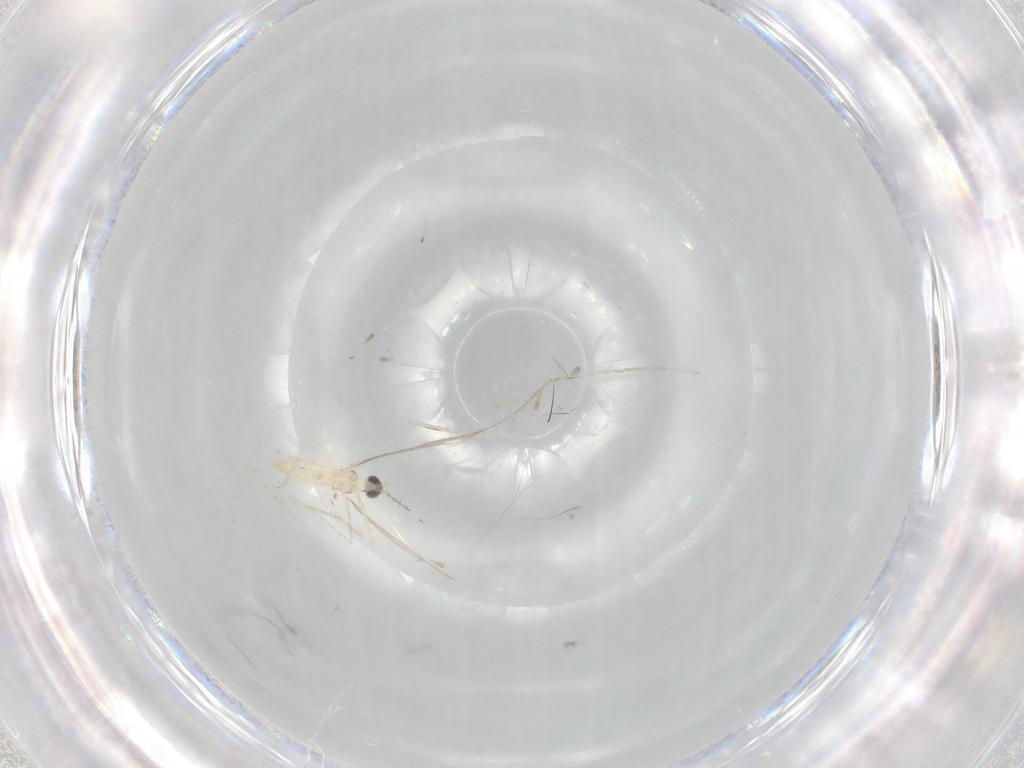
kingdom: Animalia
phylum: Arthropoda
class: Insecta
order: Diptera
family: Cecidomyiidae
